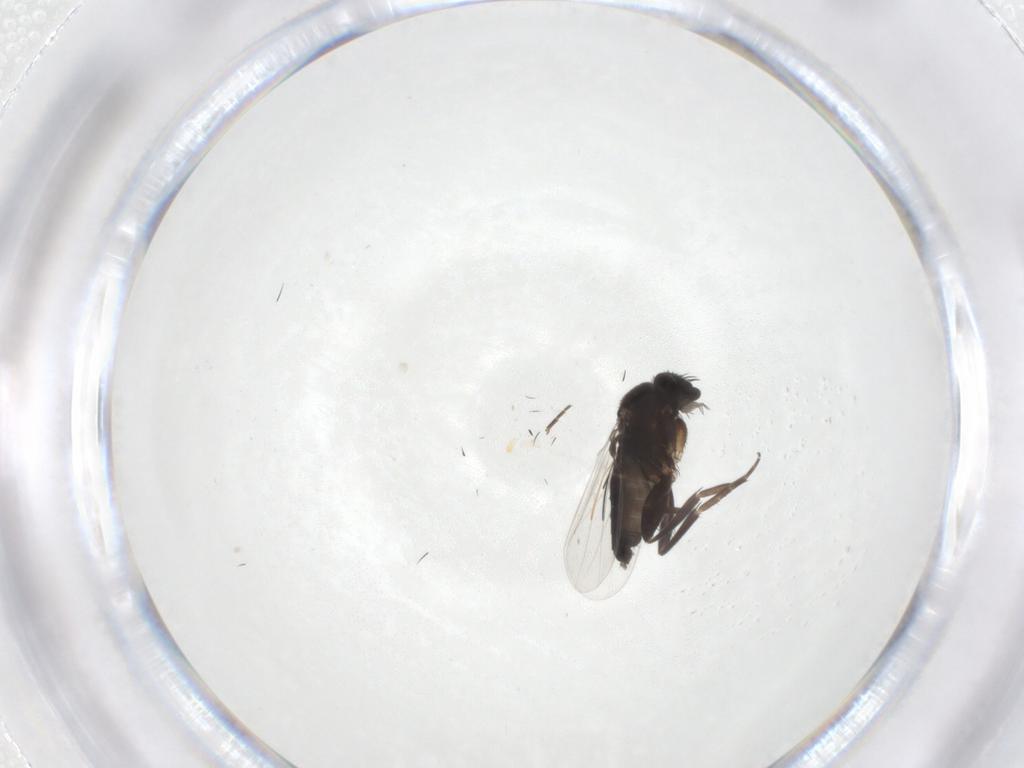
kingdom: Animalia
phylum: Arthropoda
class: Insecta
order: Diptera
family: Phoridae
